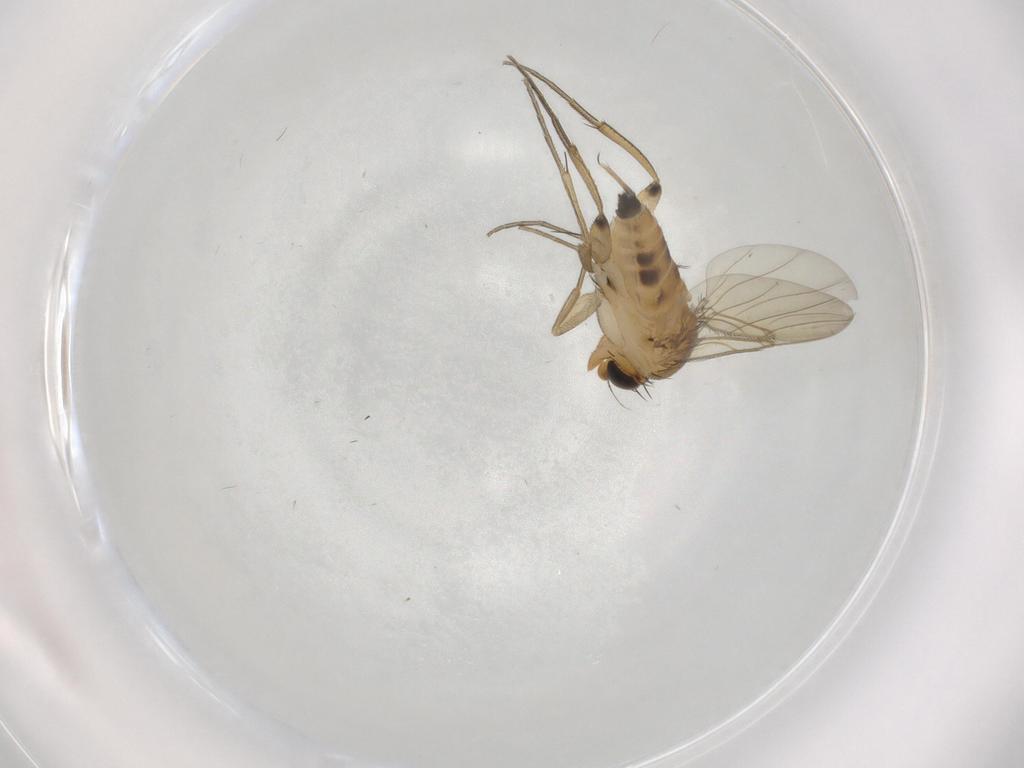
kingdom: Animalia
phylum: Arthropoda
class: Insecta
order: Diptera
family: Phoridae
